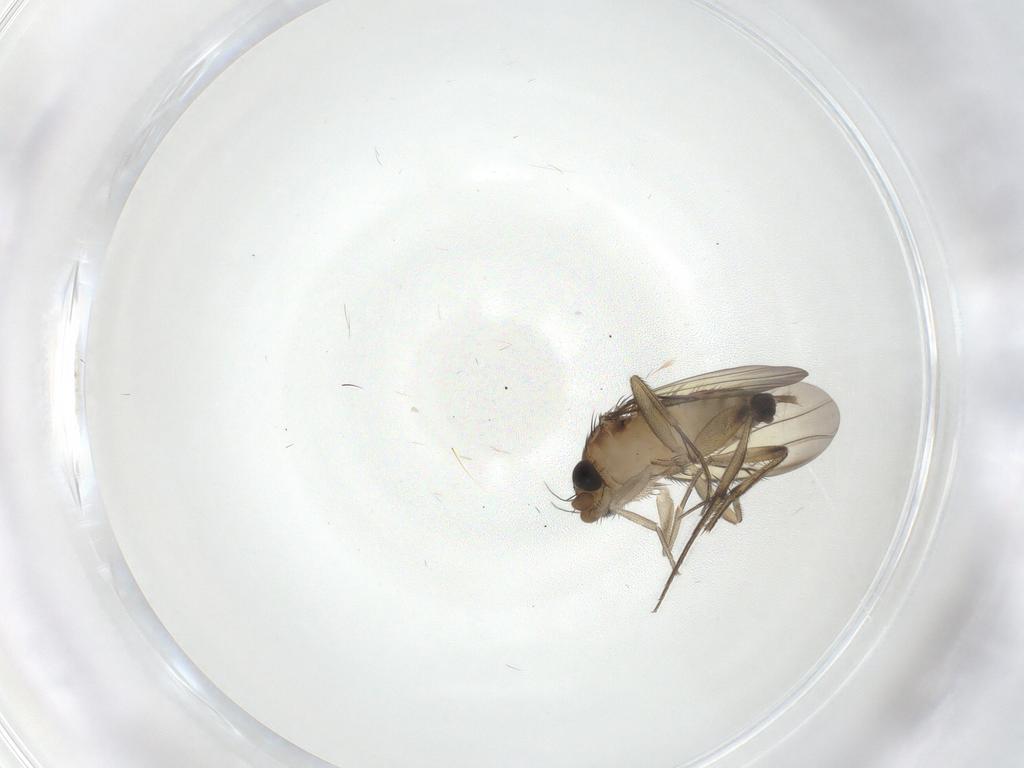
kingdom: Animalia
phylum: Arthropoda
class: Insecta
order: Diptera
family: Phoridae
